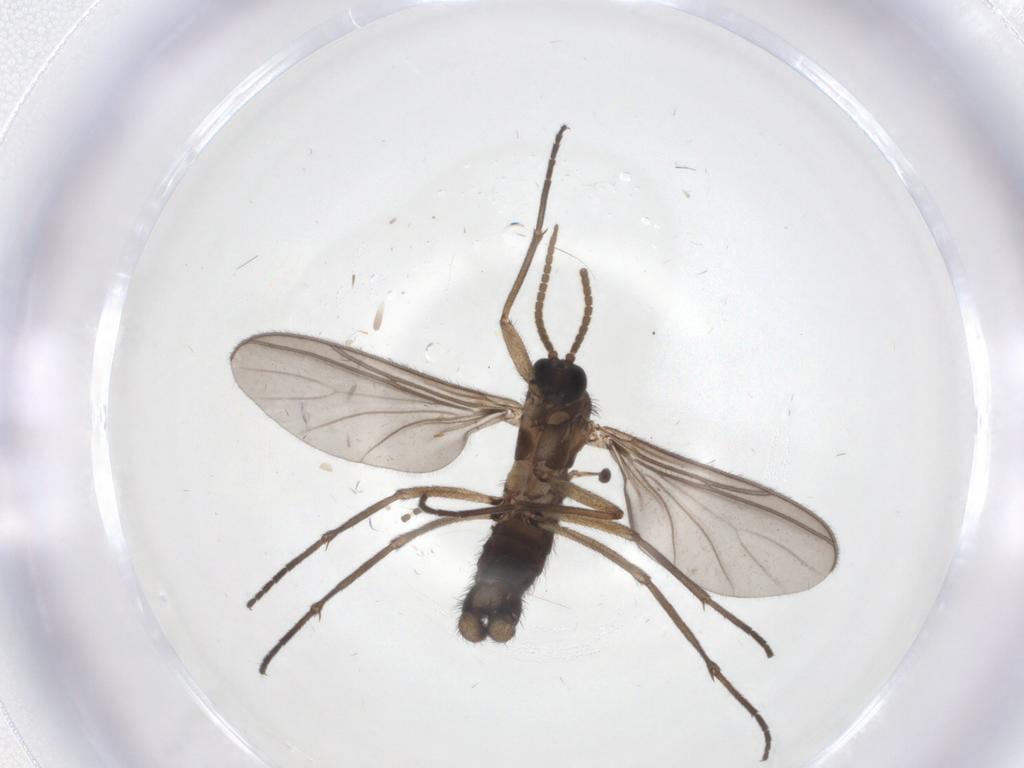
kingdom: Animalia
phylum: Arthropoda
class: Insecta
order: Diptera
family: Sciaridae
